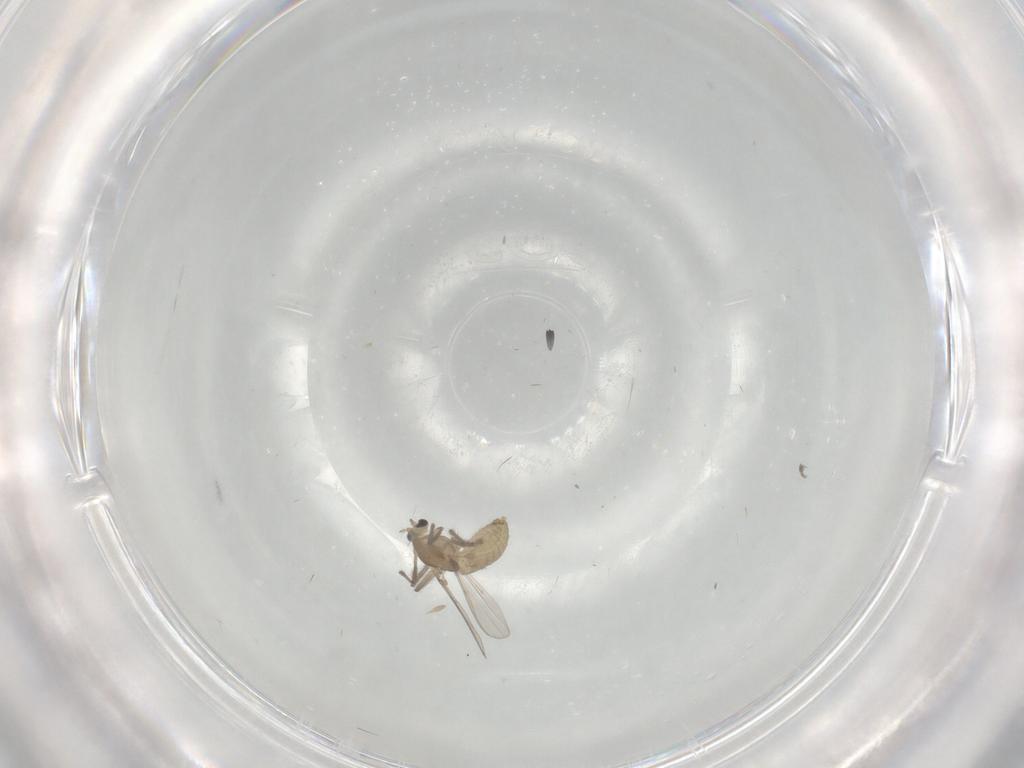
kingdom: Animalia
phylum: Arthropoda
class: Insecta
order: Diptera
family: Chironomidae
